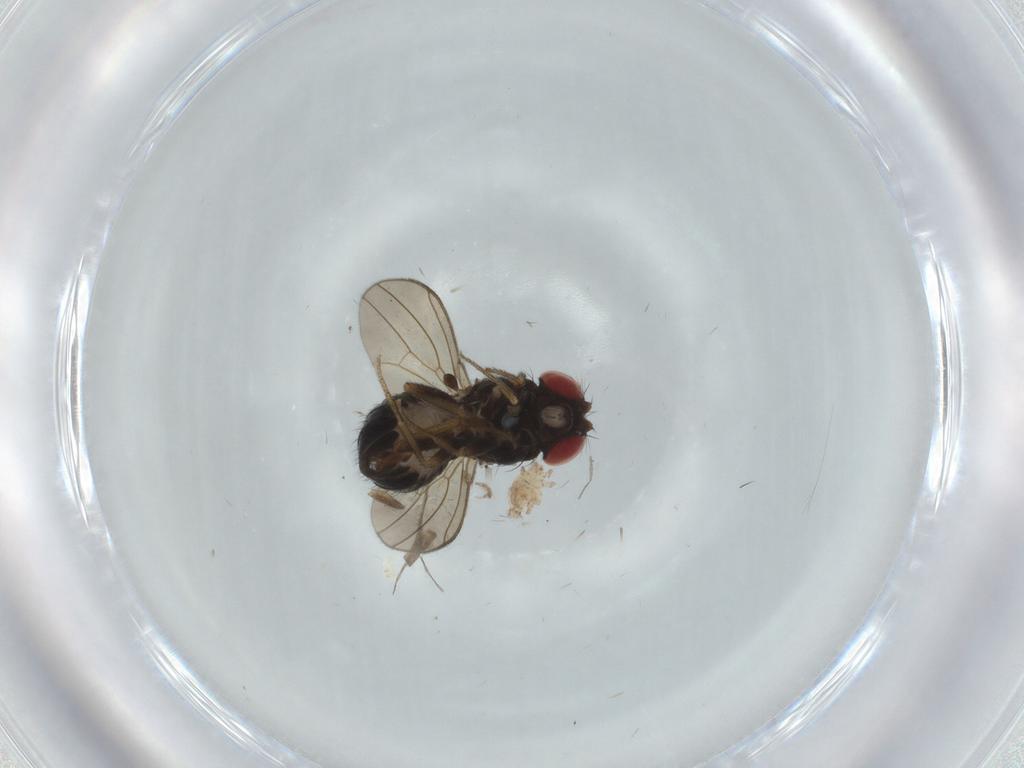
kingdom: Animalia
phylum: Arthropoda
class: Insecta
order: Diptera
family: Drosophilidae
